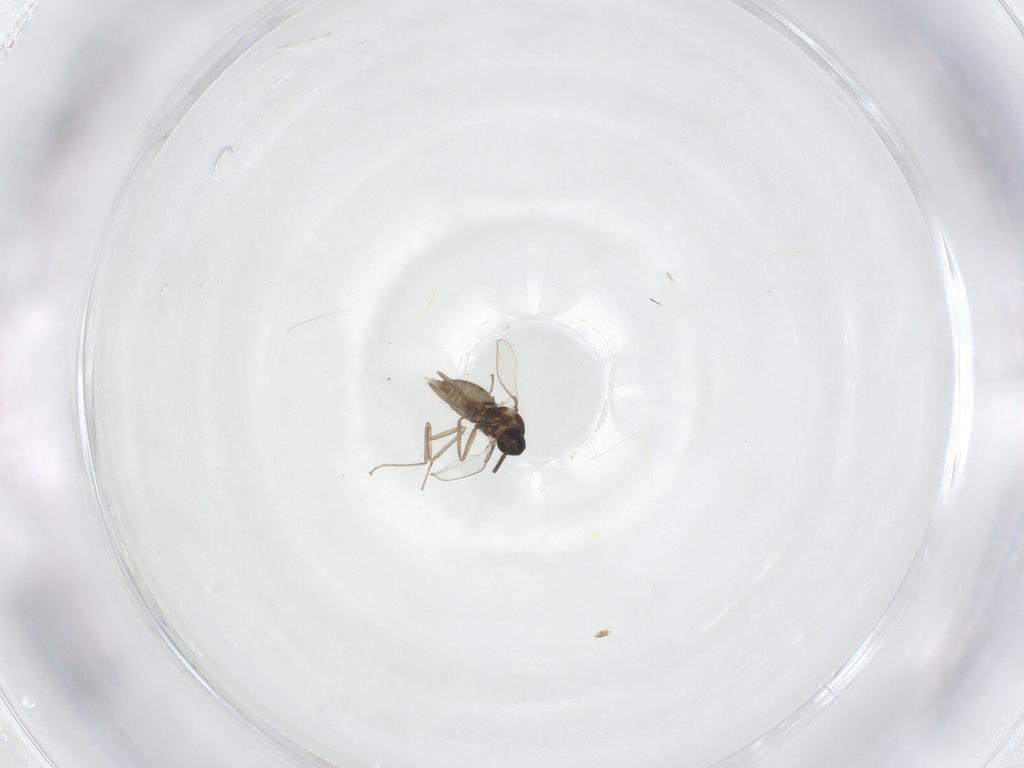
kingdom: Animalia
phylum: Arthropoda
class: Insecta
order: Diptera
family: Cecidomyiidae
